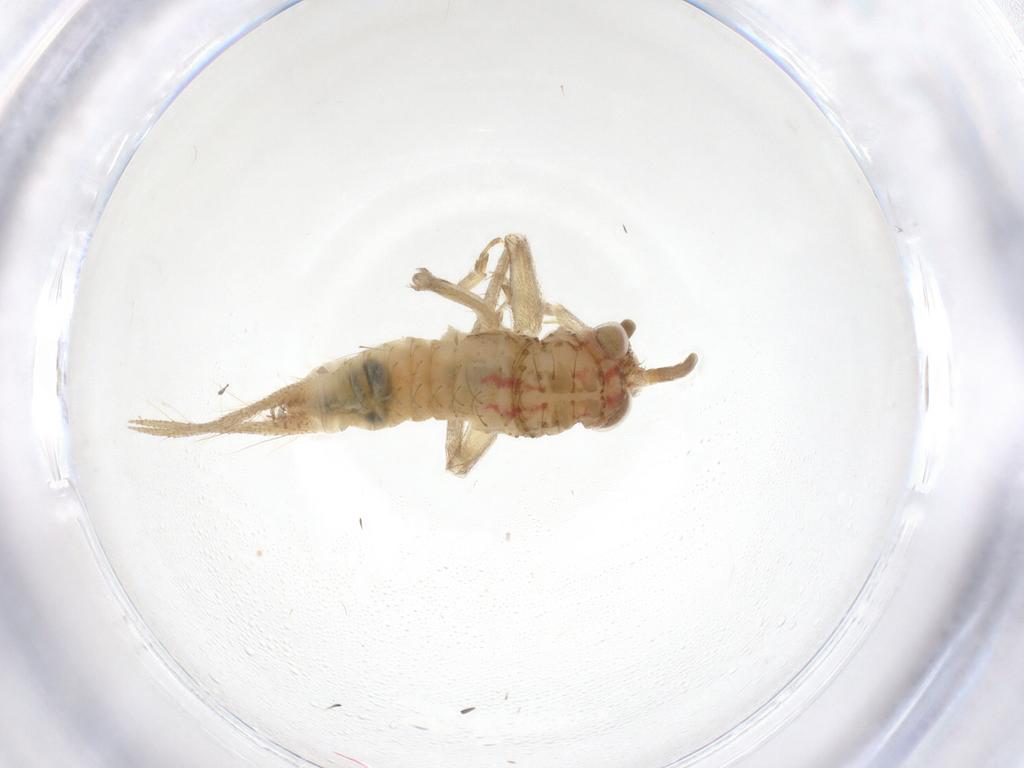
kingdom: Animalia
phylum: Arthropoda
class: Insecta
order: Orthoptera
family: Trigonidiidae
